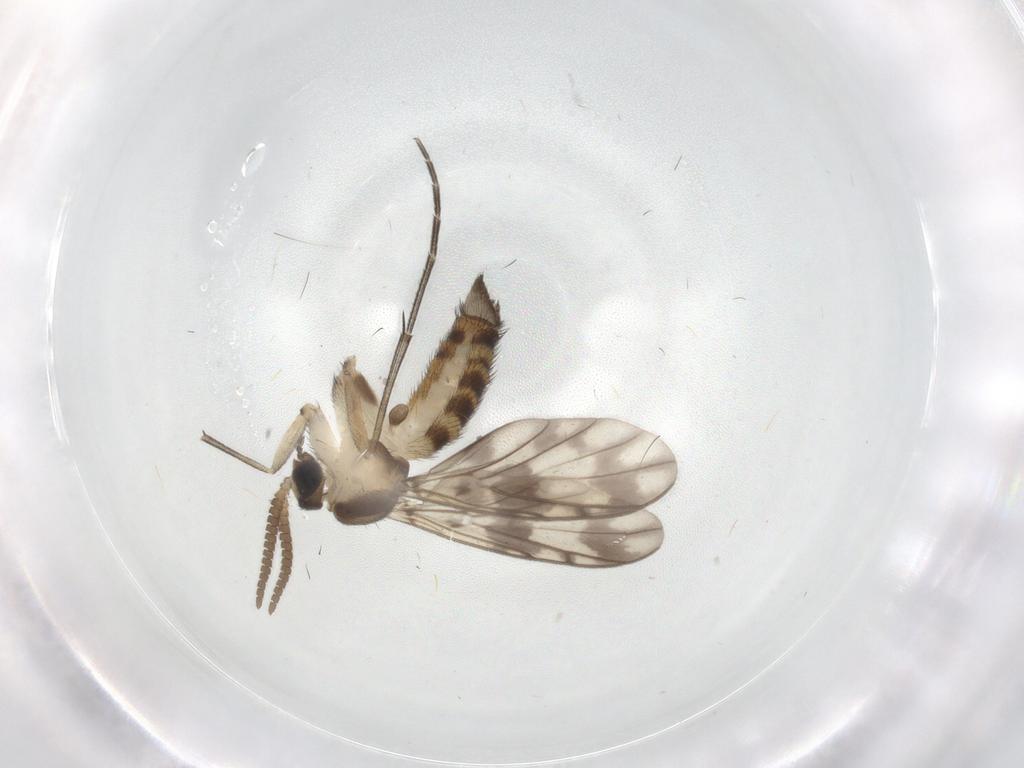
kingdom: Animalia
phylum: Arthropoda
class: Insecta
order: Diptera
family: Keroplatidae
